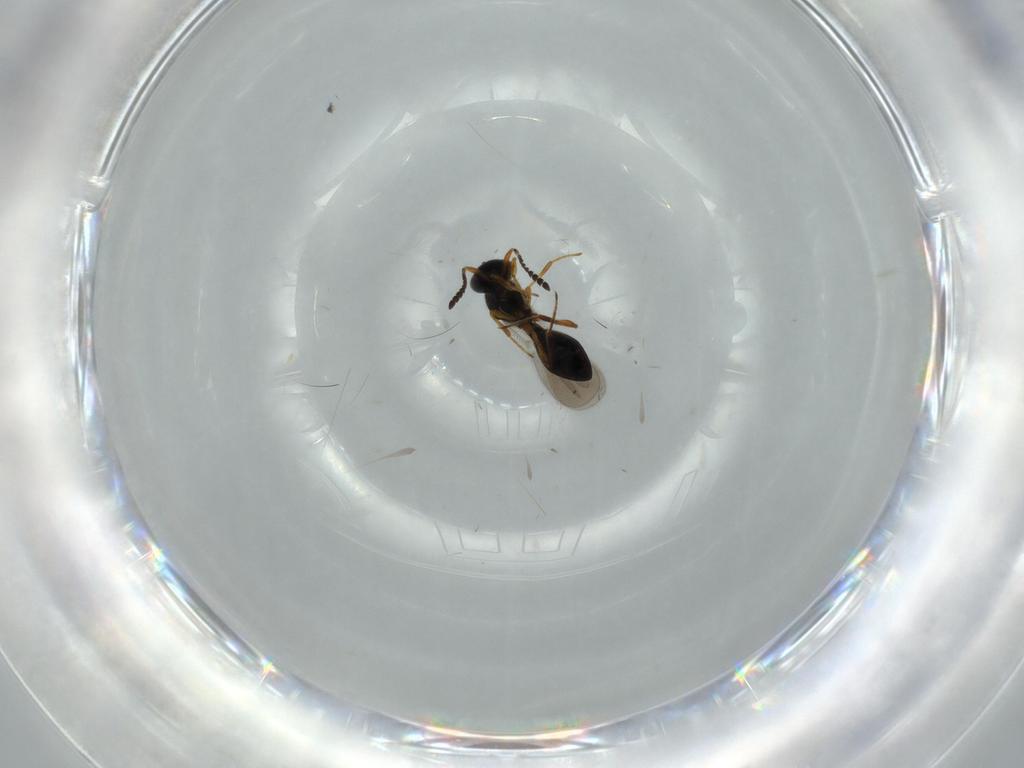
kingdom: Animalia
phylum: Arthropoda
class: Insecta
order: Hymenoptera
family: Platygastridae
